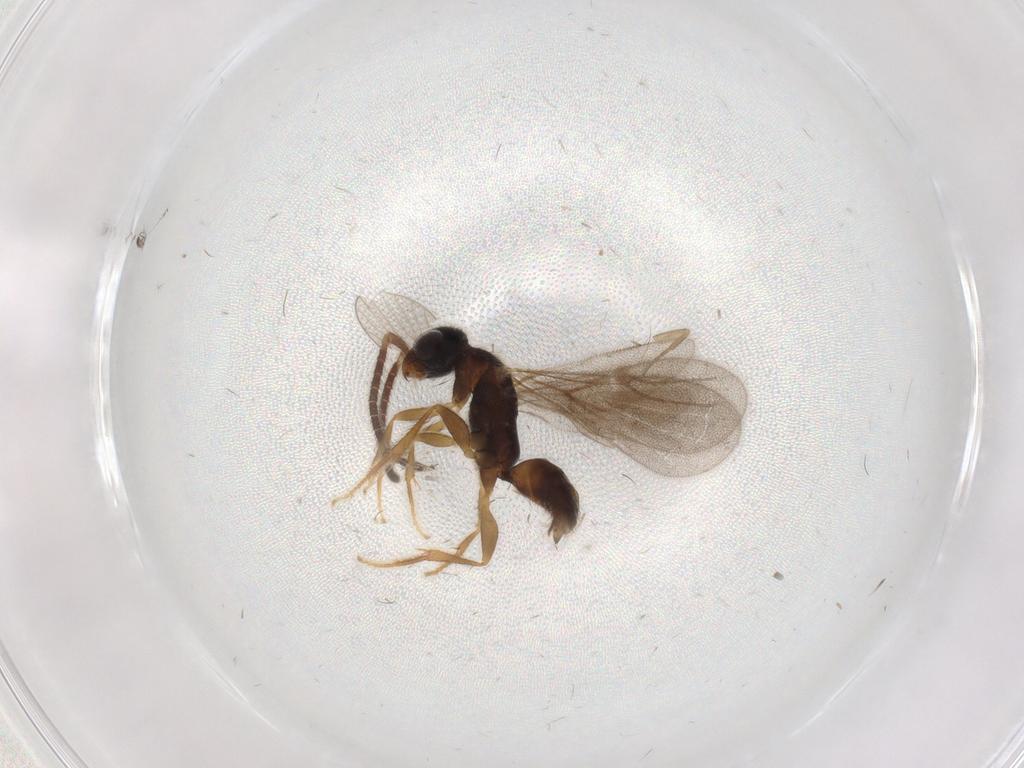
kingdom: Animalia
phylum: Arthropoda
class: Insecta
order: Hymenoptera
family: Bethylidae
